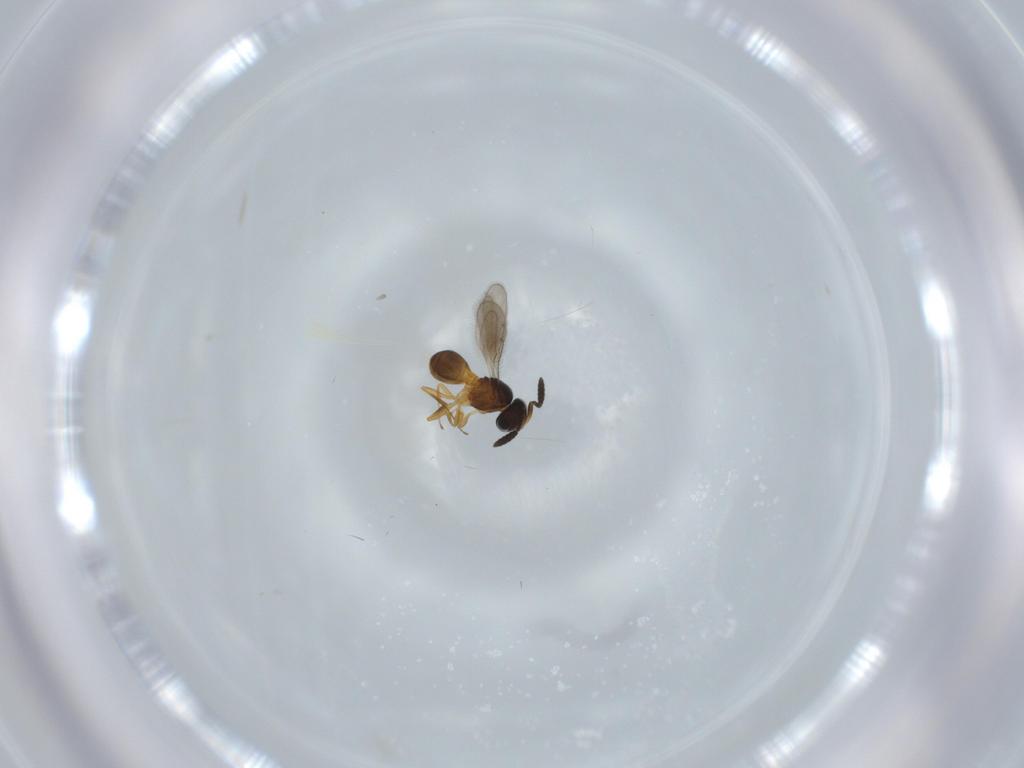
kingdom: Animalia
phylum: Arthropoda
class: Insecta
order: Hymenoptera
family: Scelionidae
